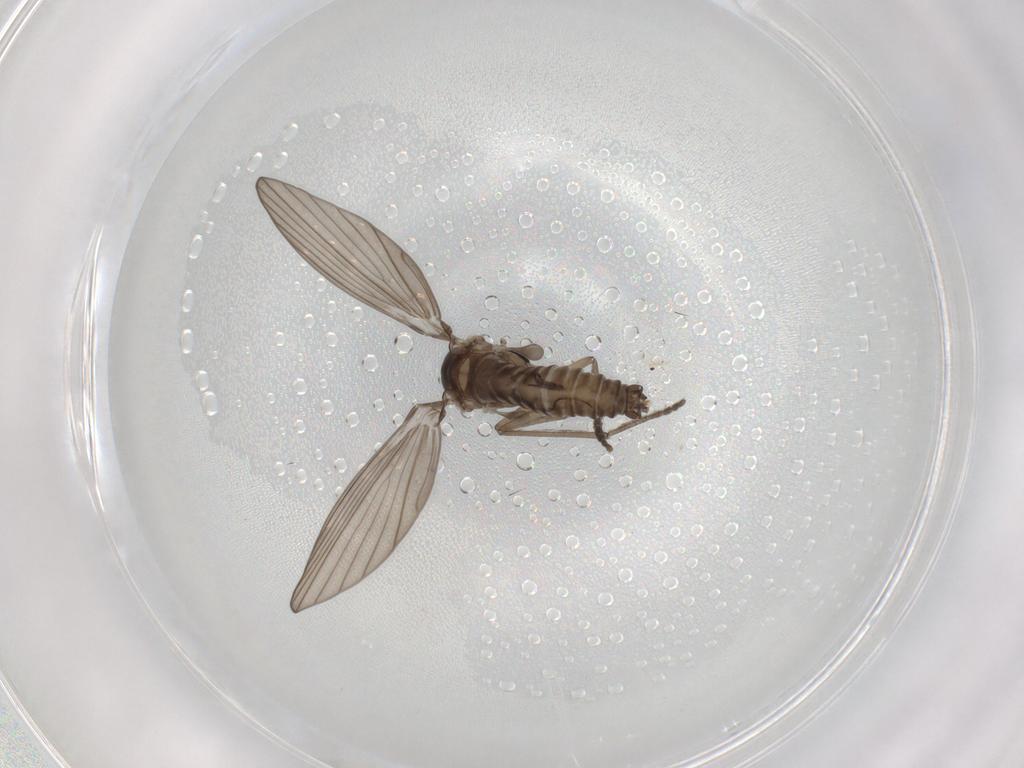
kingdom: Animalia
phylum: Arthropoda
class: Insecta
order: Diptera
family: Psychodidae
